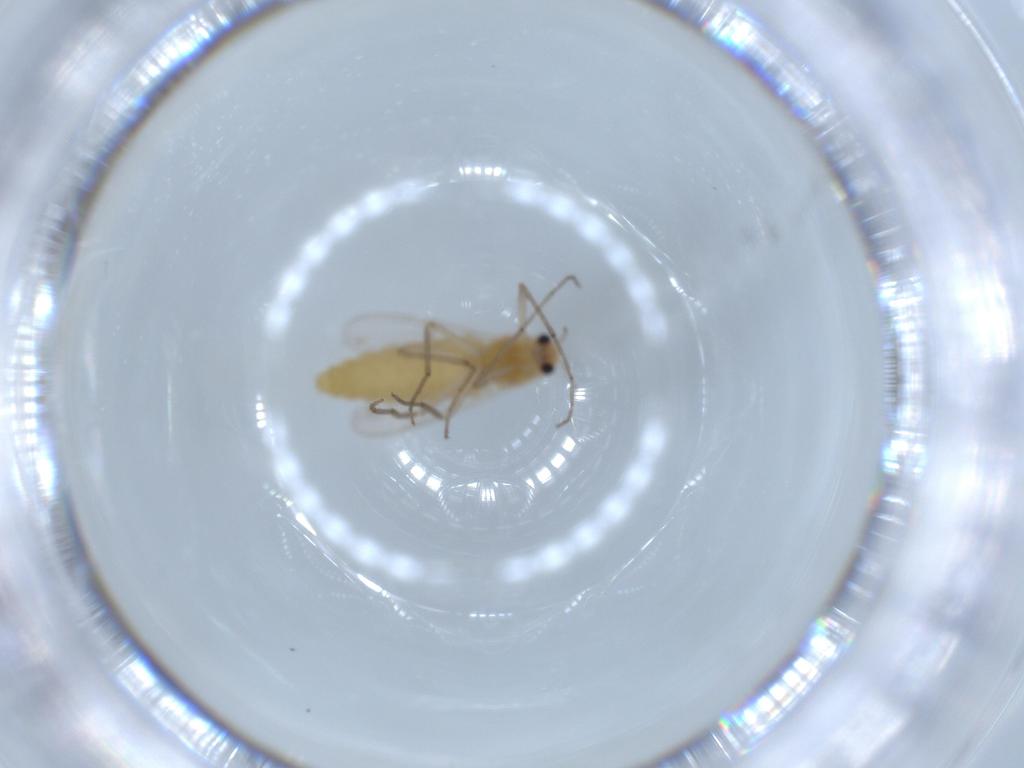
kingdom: Animalia
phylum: Arthropoda
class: Insecta
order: Diptera
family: Chironomidae
